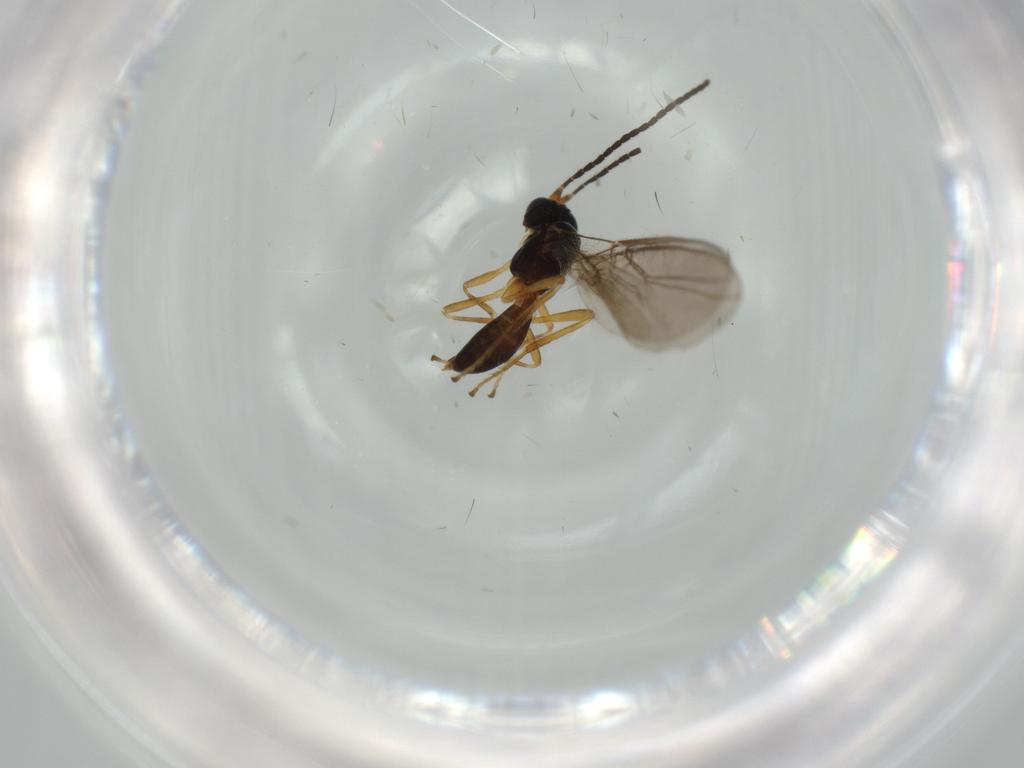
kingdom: Animalia
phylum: Arthropoda
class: Insecta
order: Hymenoptera
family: Braconidae
